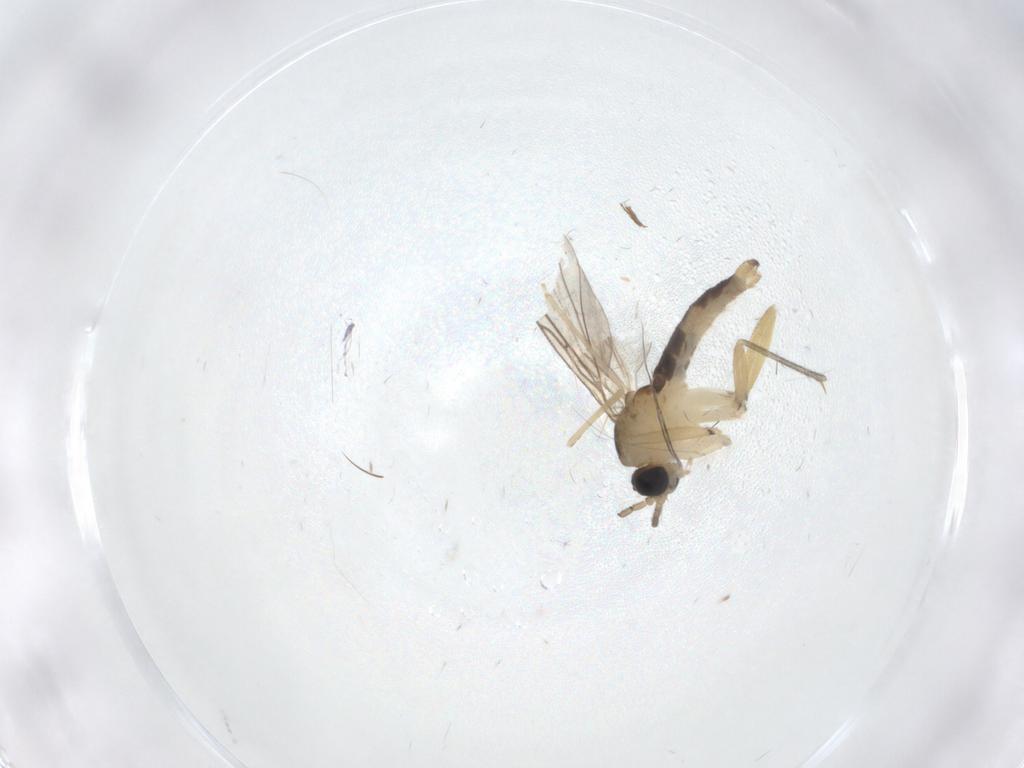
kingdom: Animalia
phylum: Arthropoda
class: Insecta
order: Diptera
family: Sciaridae
